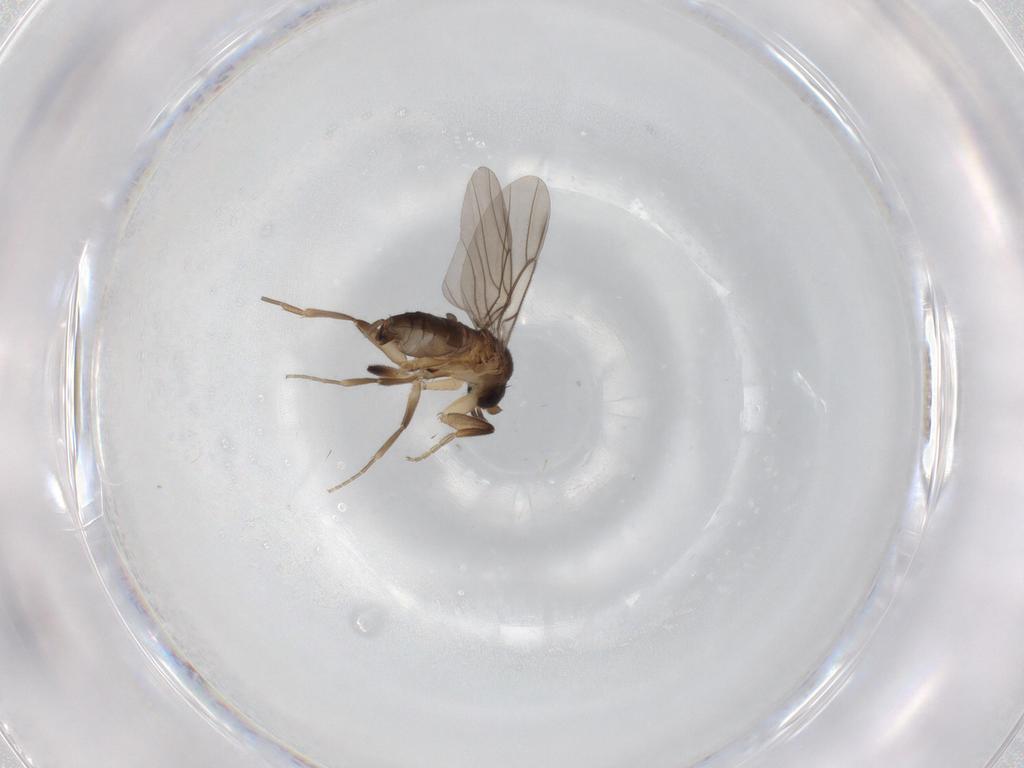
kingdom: Animalia
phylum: Arthropoda
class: Insecta
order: Diptera
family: Phoridae
